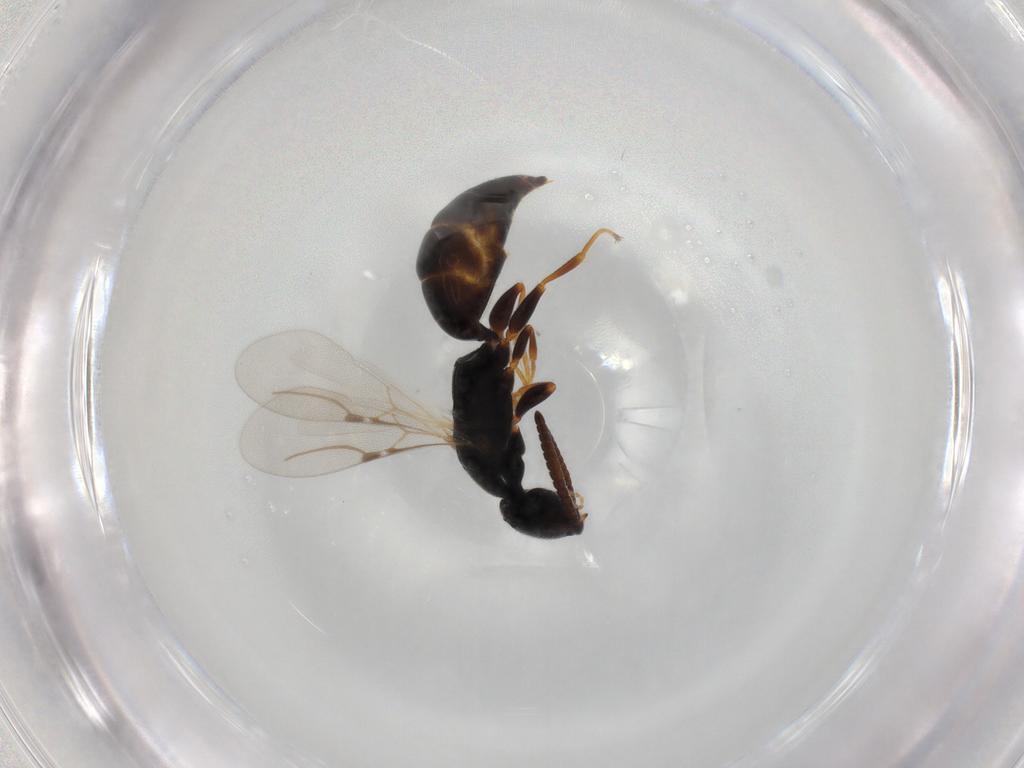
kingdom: Animalia
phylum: Arthropoda
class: Insecta
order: Hymenoptera
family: Bethylidae
